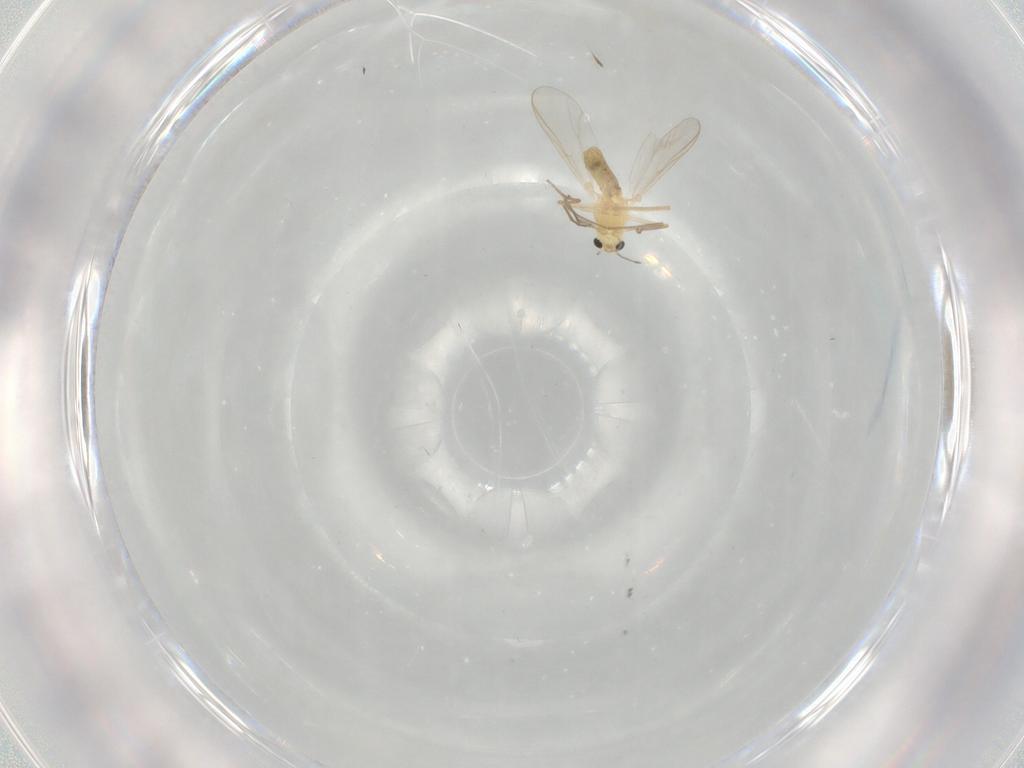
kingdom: Animalia
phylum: Arthropoda
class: Insecta
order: Diptera
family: Chironomidae
